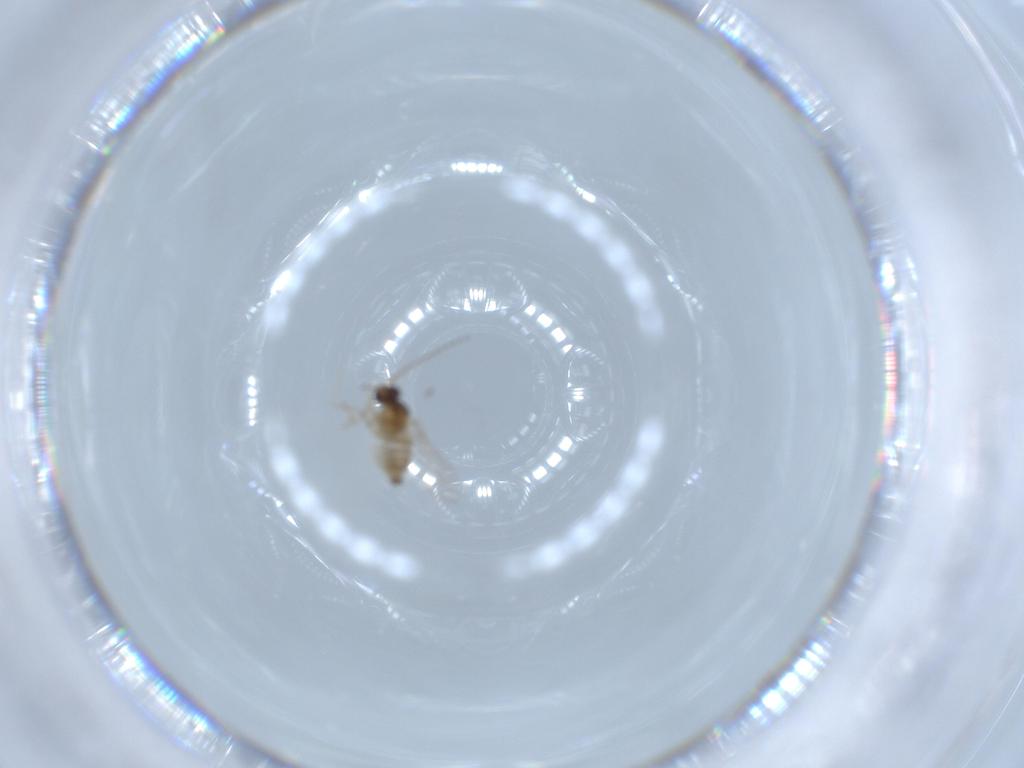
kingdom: Animalia
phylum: Arthropoda
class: Insecta
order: Diptera
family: Cecidomyiidae
